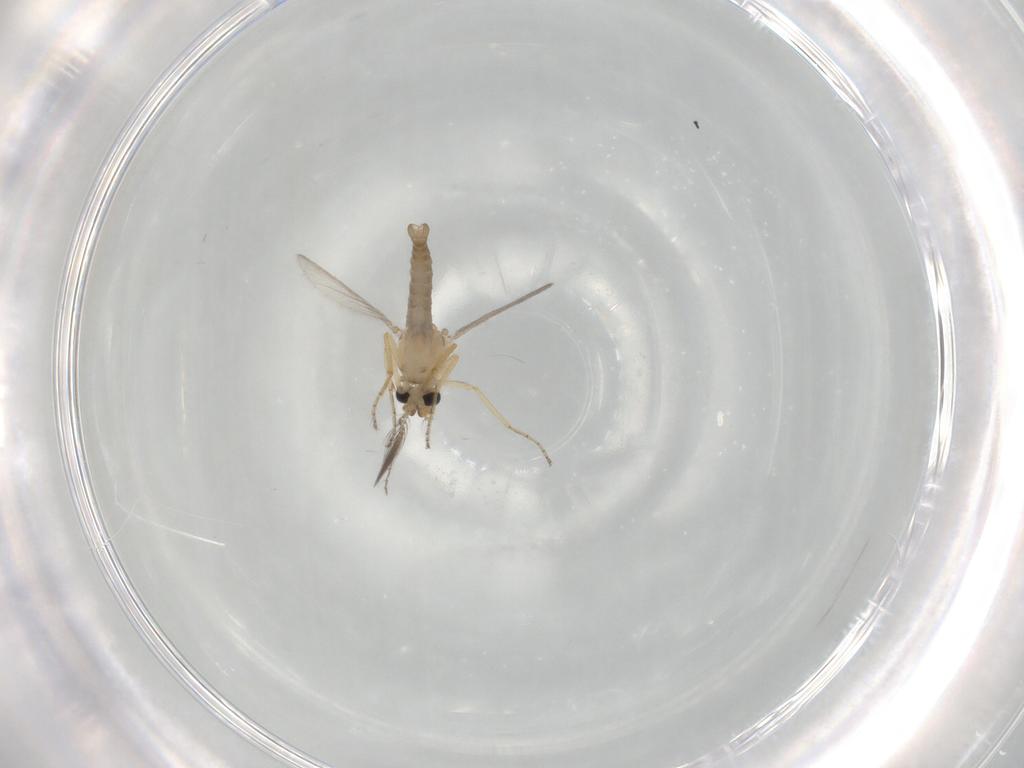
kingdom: Animalia
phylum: Arthropoda
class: Insecta
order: Diptera
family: Ceratopogonidae
